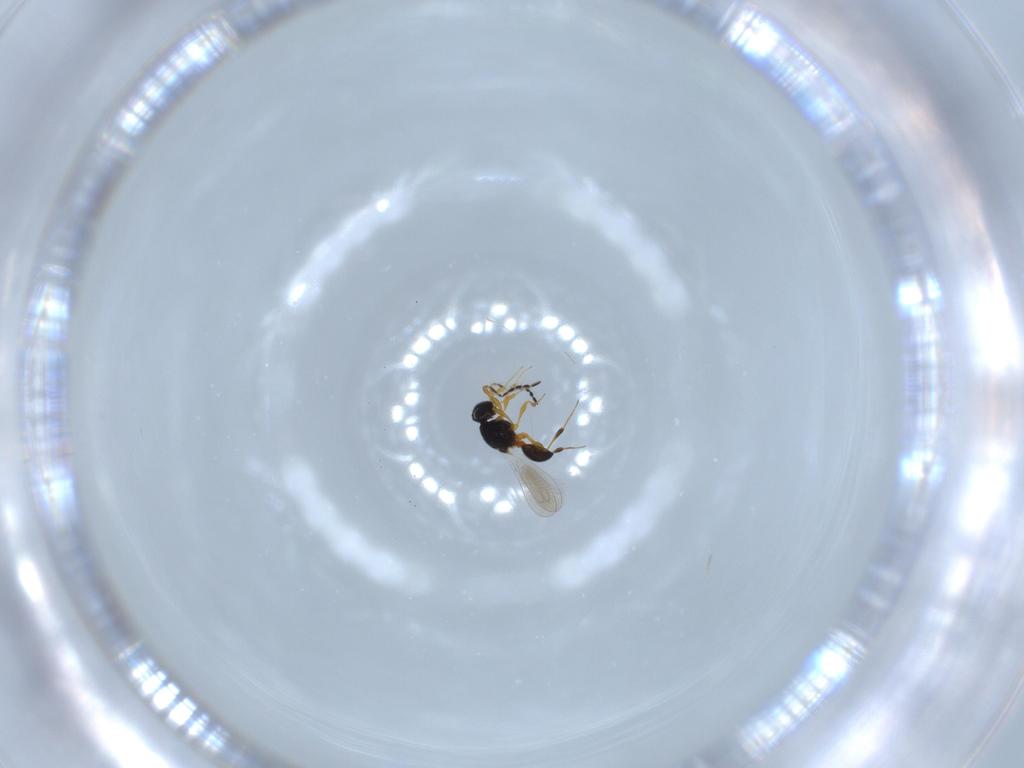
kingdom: Animalia
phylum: Arthropoda
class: Insecta
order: Hymenoptera
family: Platygastridae
